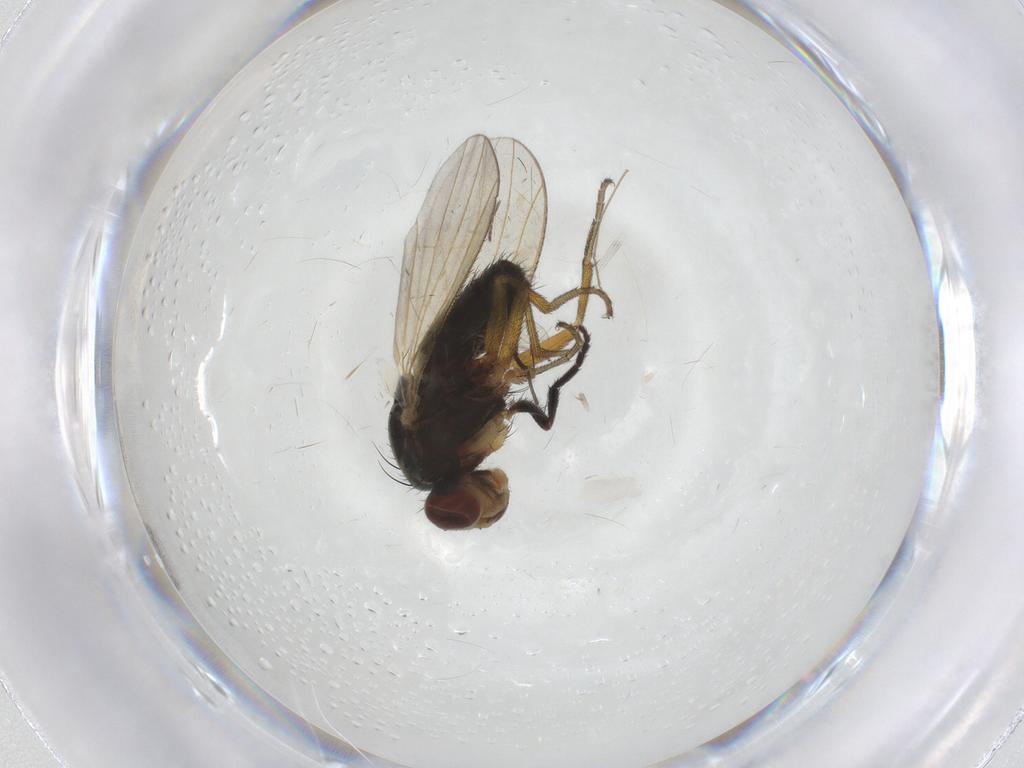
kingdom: Animalia
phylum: Arthropoda
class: Insecta
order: Diptera
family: Heleomyzidae
